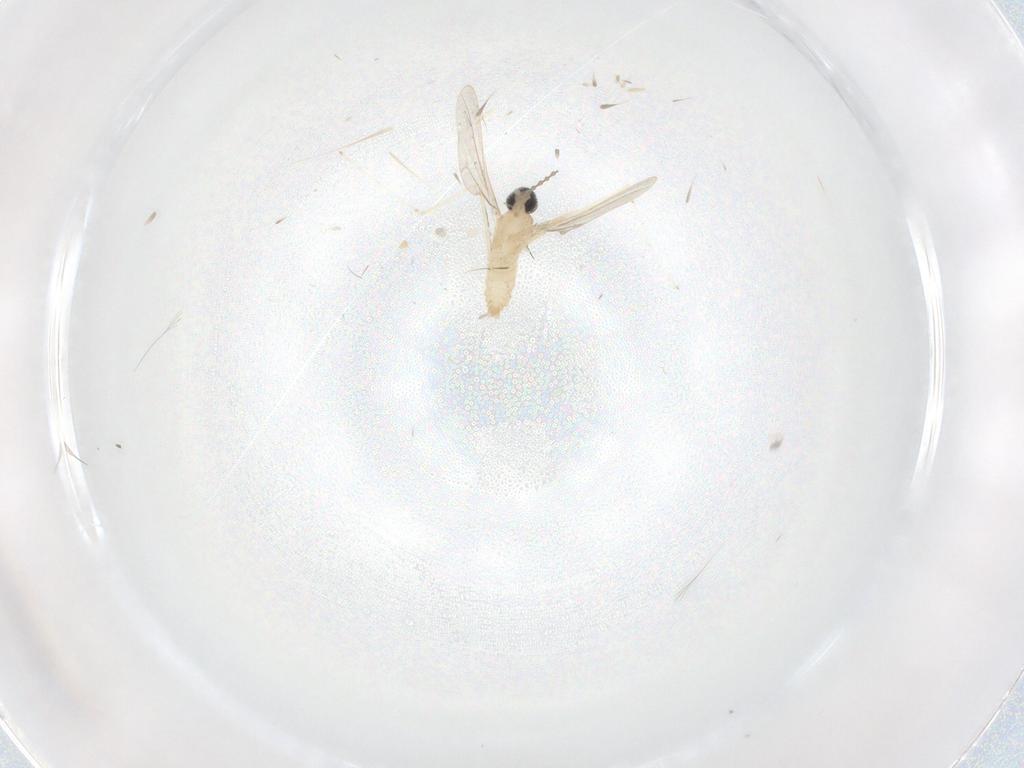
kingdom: Animalia
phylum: Arthropoda
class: Insecta
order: Diptera
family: Cecidomyiidae
